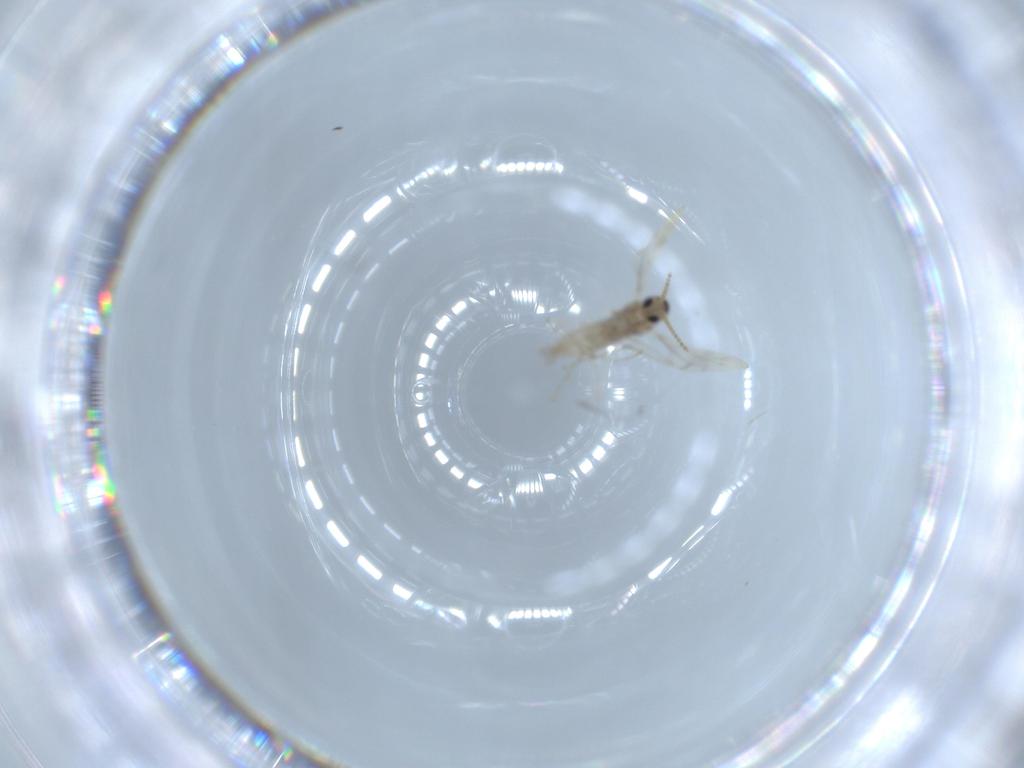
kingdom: Animalia
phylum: Arthropoda
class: Insecta
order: Diptera
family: Cecidomyiidae
